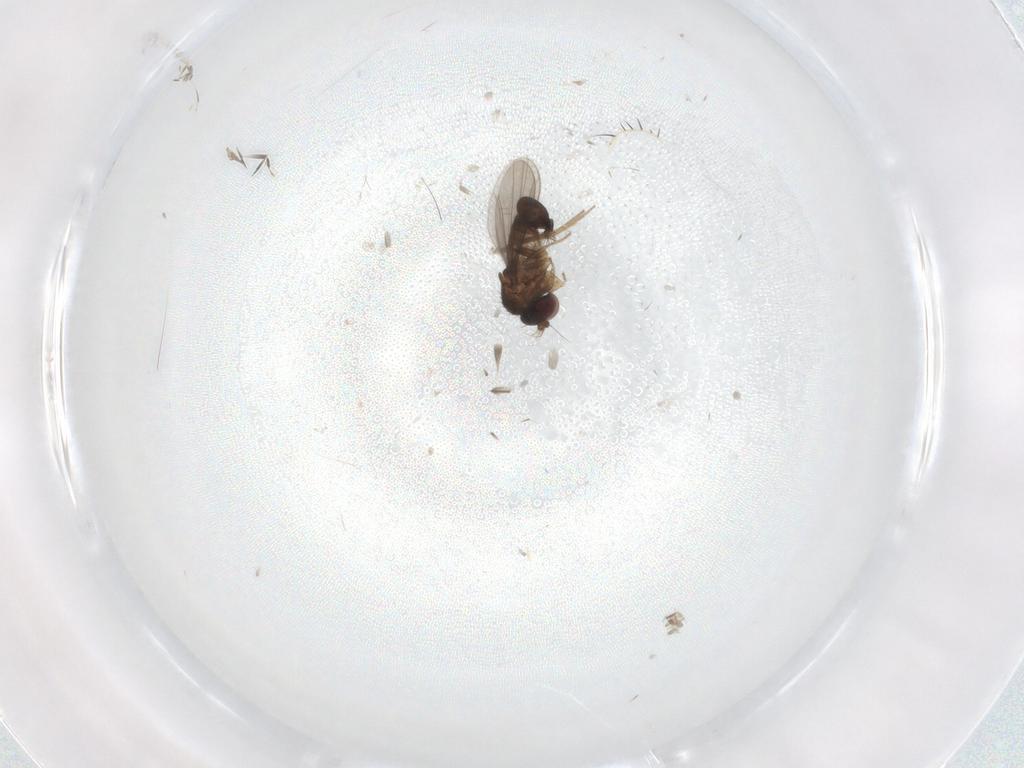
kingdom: Animalia
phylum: Arthropoda
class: Insecta
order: Diptera
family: Dolichopodidae
